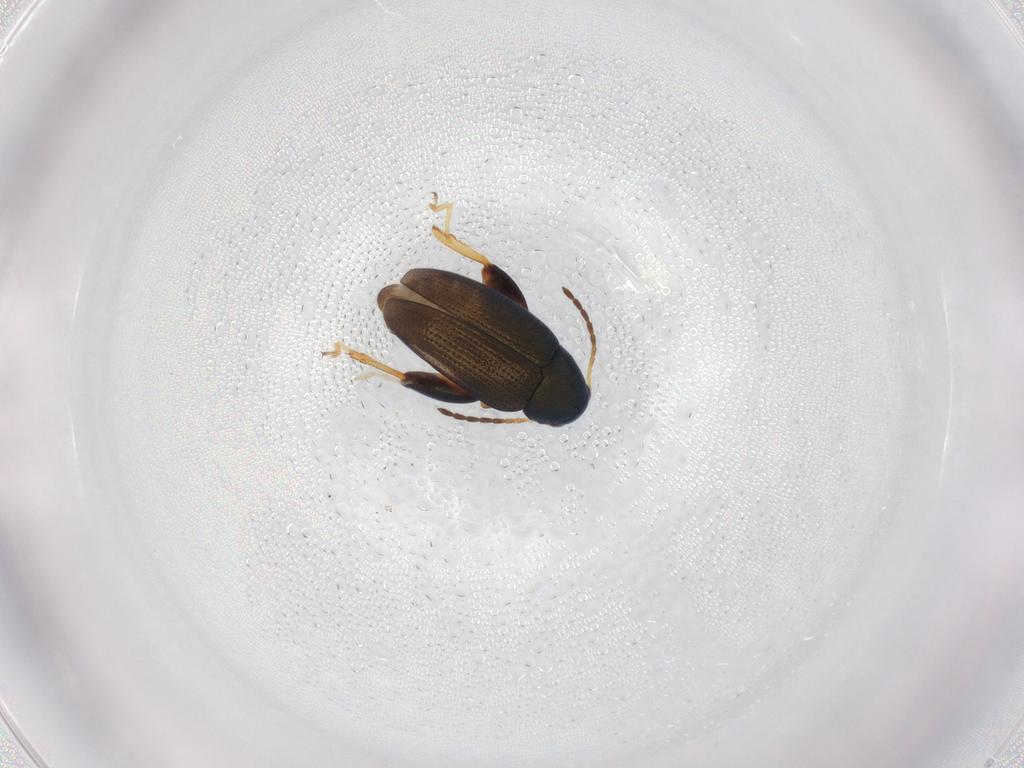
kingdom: Animalia
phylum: Arthropoda
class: Insecta
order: Coleoptera
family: Chrysomelidae
